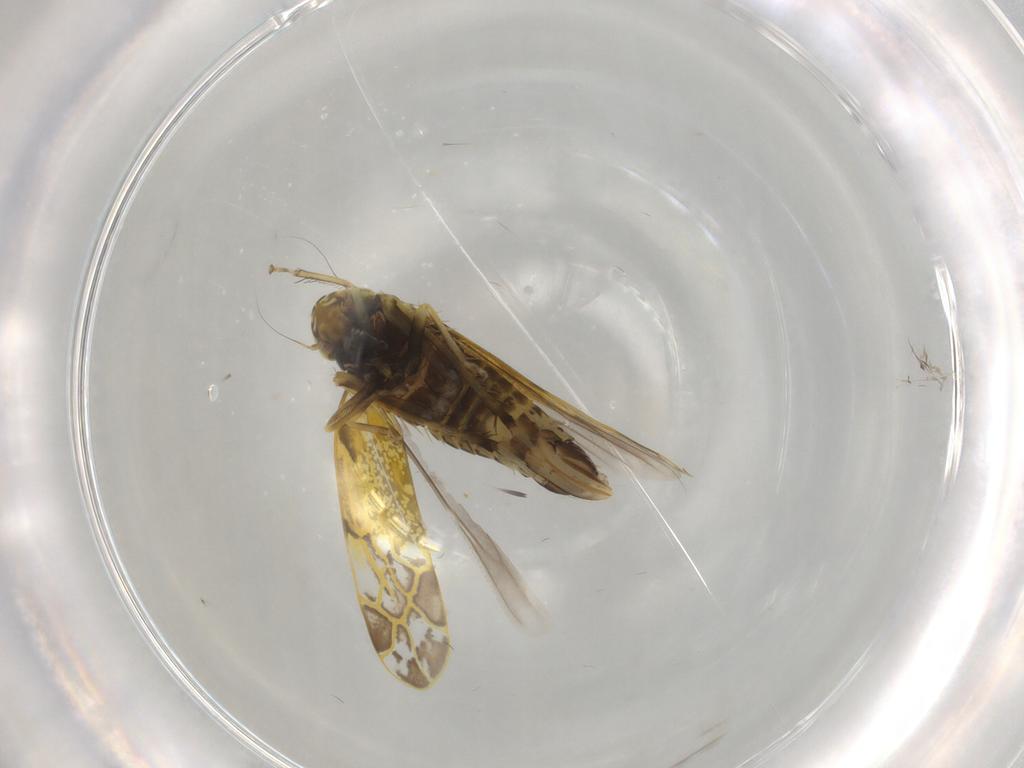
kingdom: Animalia
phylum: Arthropoda
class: Insecta
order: Hemiptera
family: Cicadellidae
